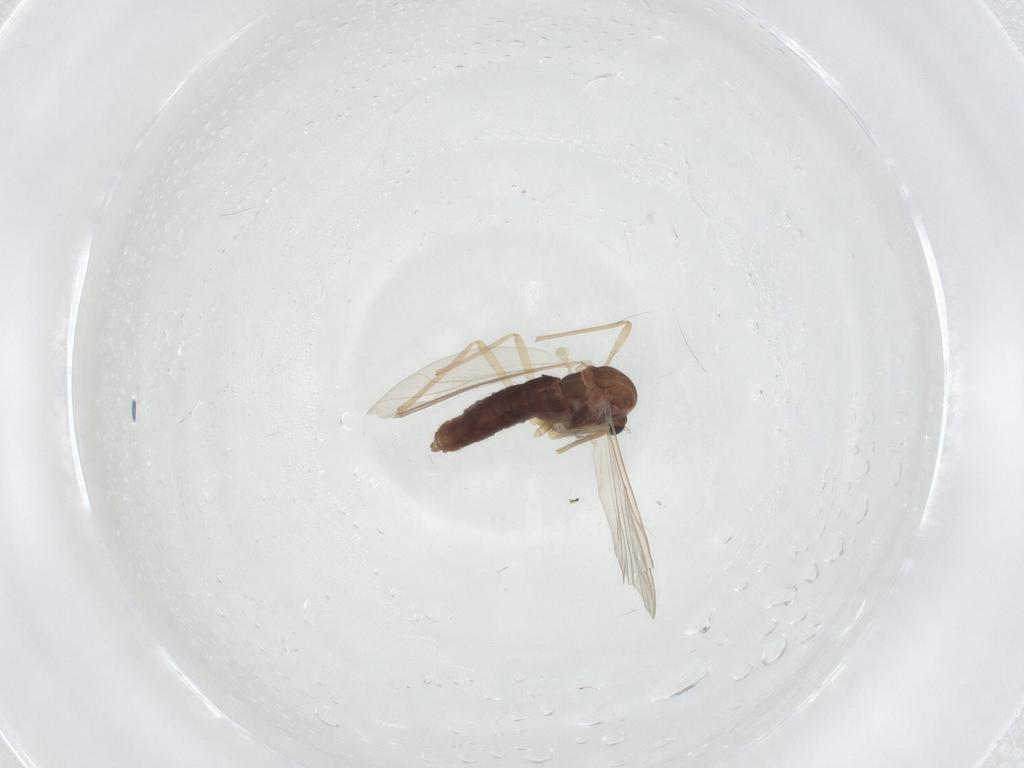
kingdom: Animalia
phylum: Arthropoda
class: Insecta
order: Diptera
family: Chironomidae
